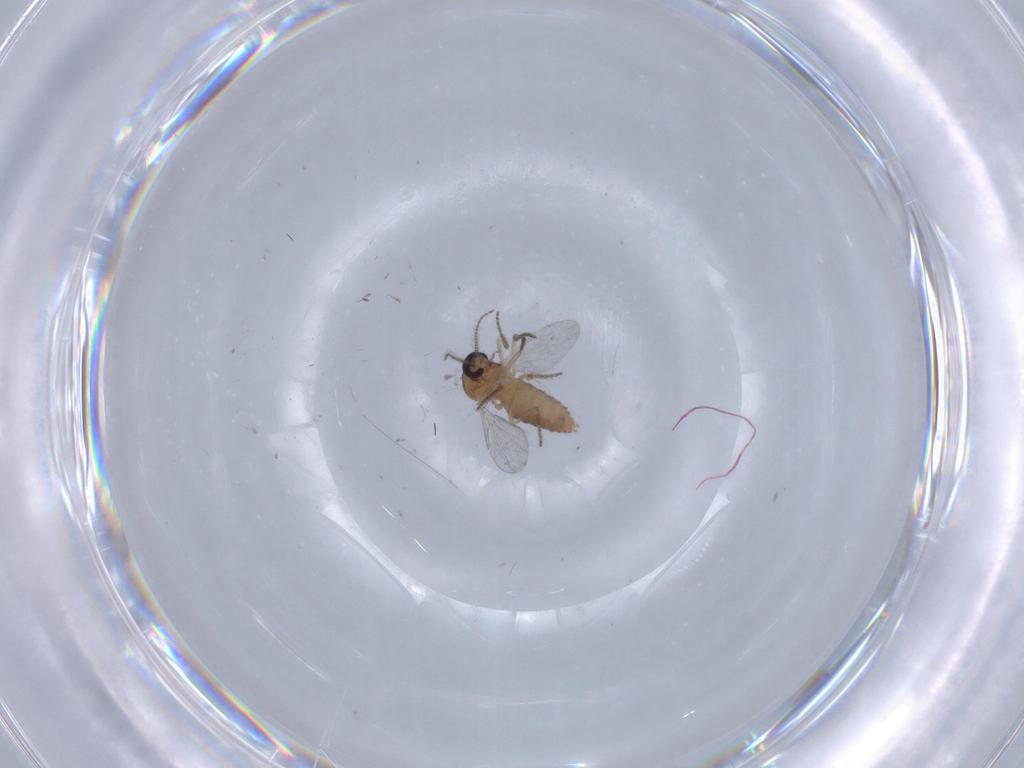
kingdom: Animalia
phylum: Arthropoda
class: Insecta
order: Diptera
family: Ceratopogonidae
